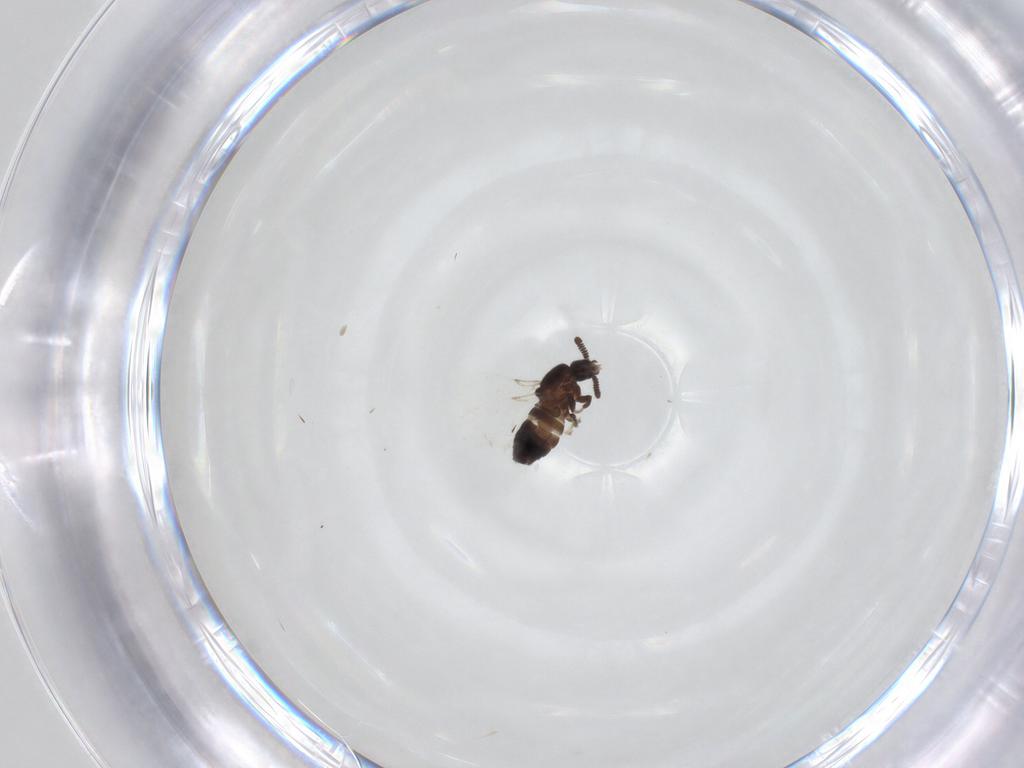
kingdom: Animalia
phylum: Arthropoda
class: Insecta
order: Diptera
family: Scatopsidae
